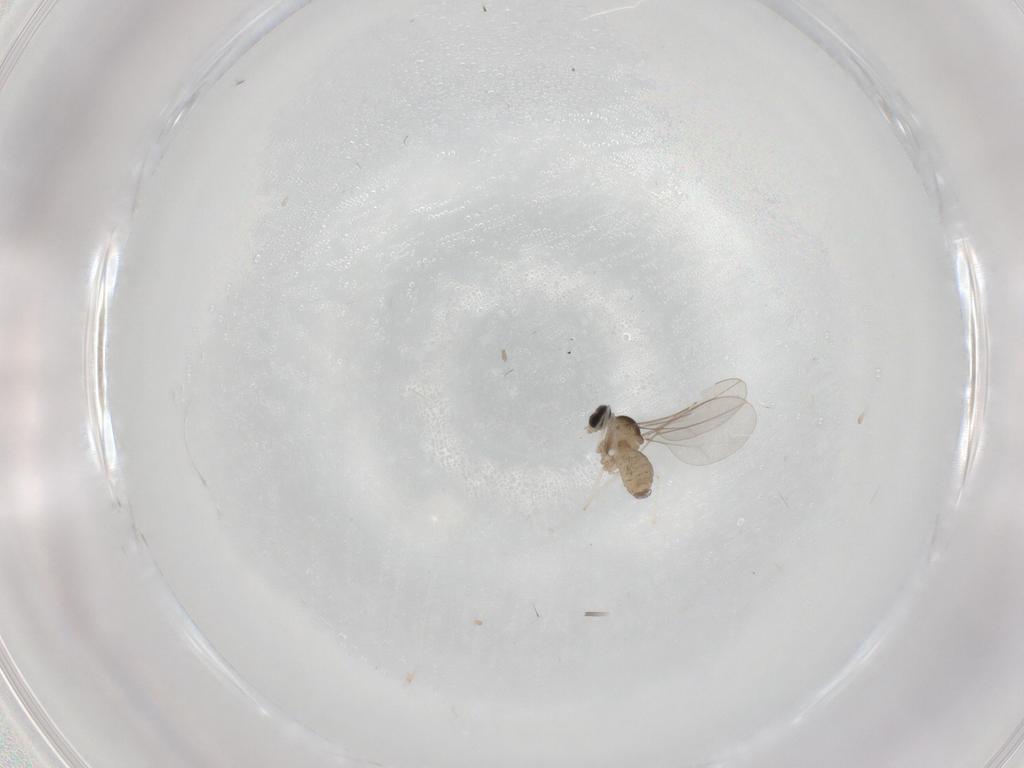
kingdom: Animalia
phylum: Arthropoda
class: Insecta
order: Diptera
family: Cecidomyiidae
